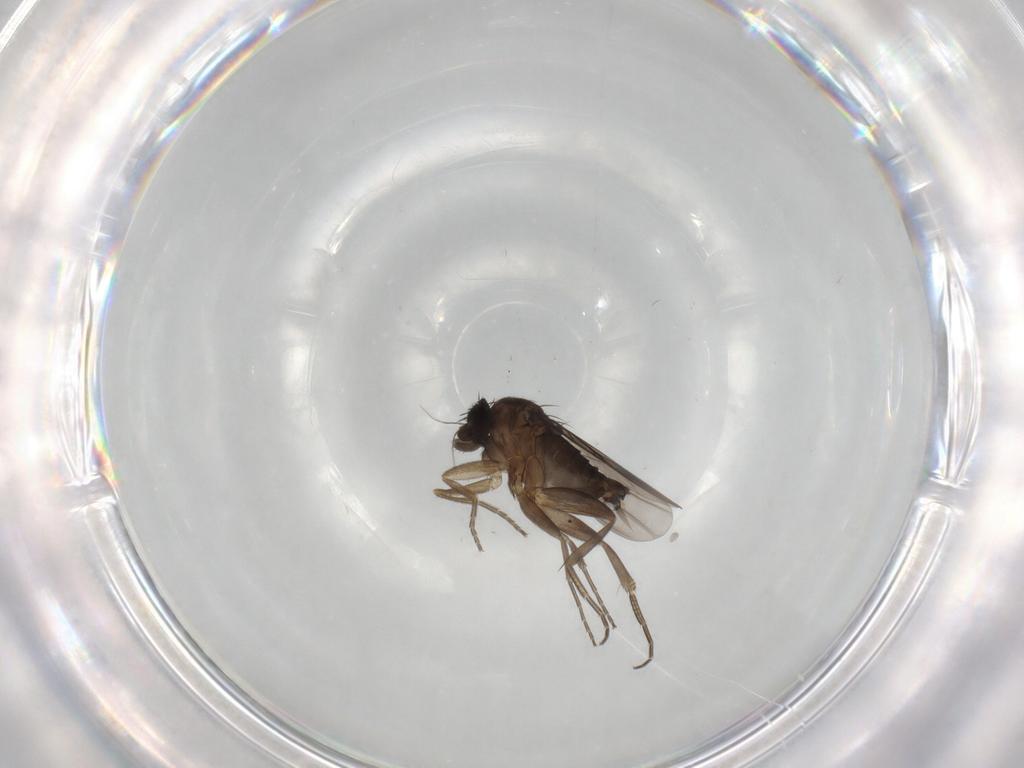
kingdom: Animalia
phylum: Arthropoda
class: Insecta
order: Diptera
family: Phoridae
